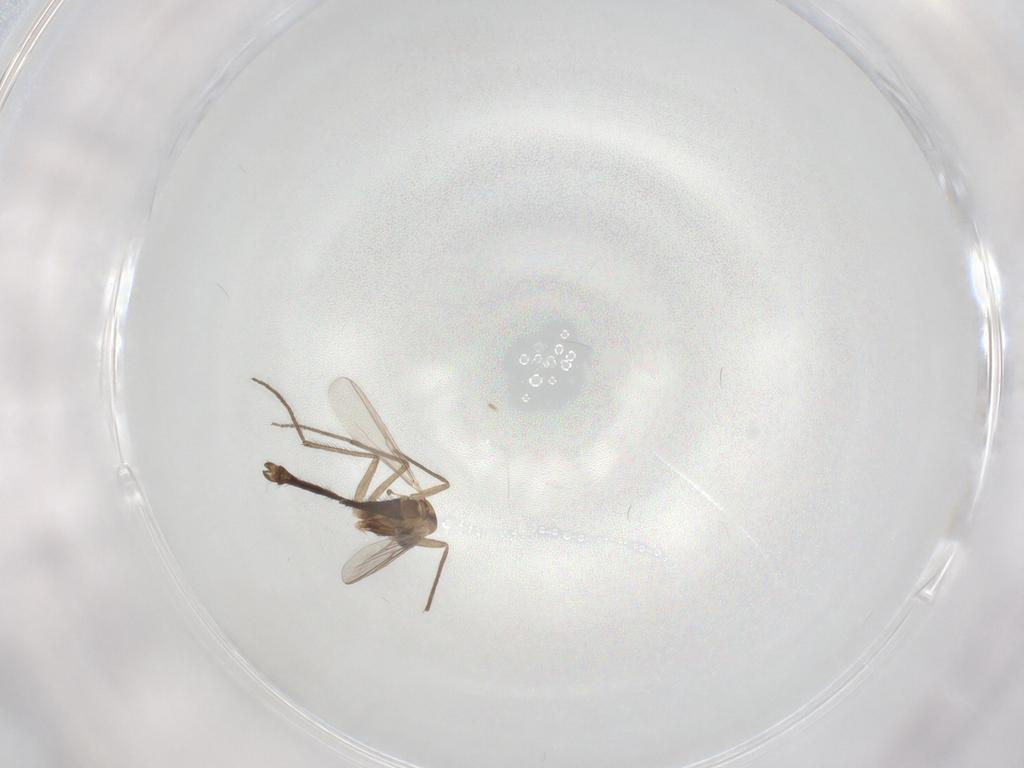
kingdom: Animalia
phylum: Arthropoda
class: Insecta
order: Diptera
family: Chironomidae
